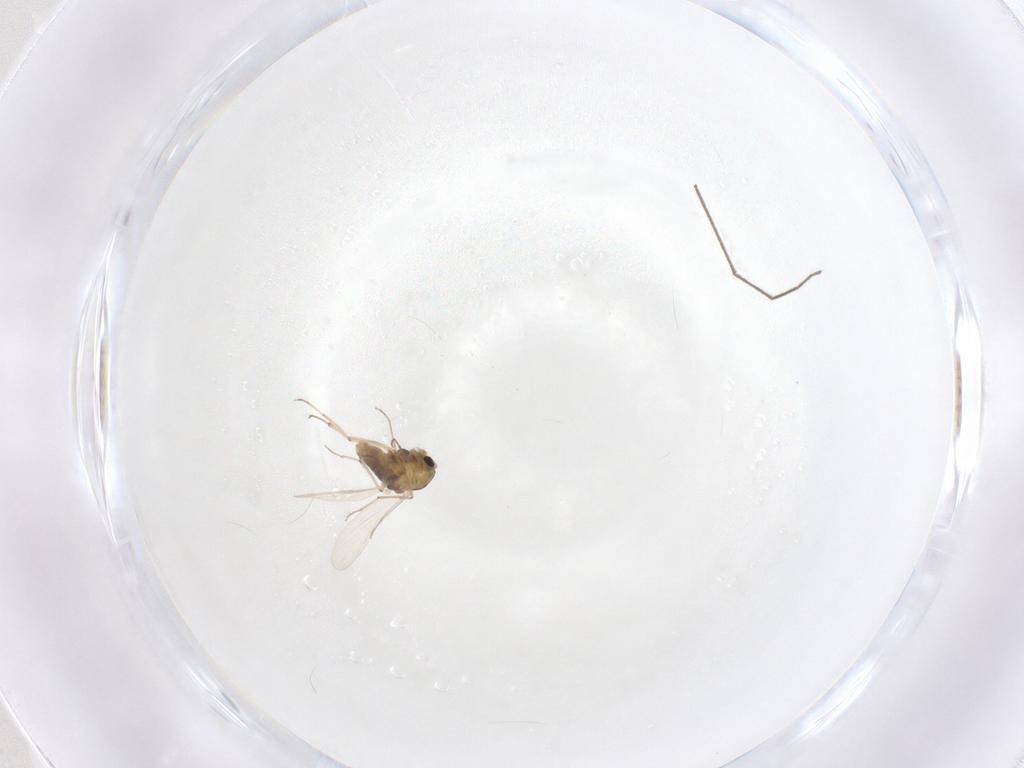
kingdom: Animalia
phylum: Arthropoda
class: Insecta
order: Diptera
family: Chironomidae
